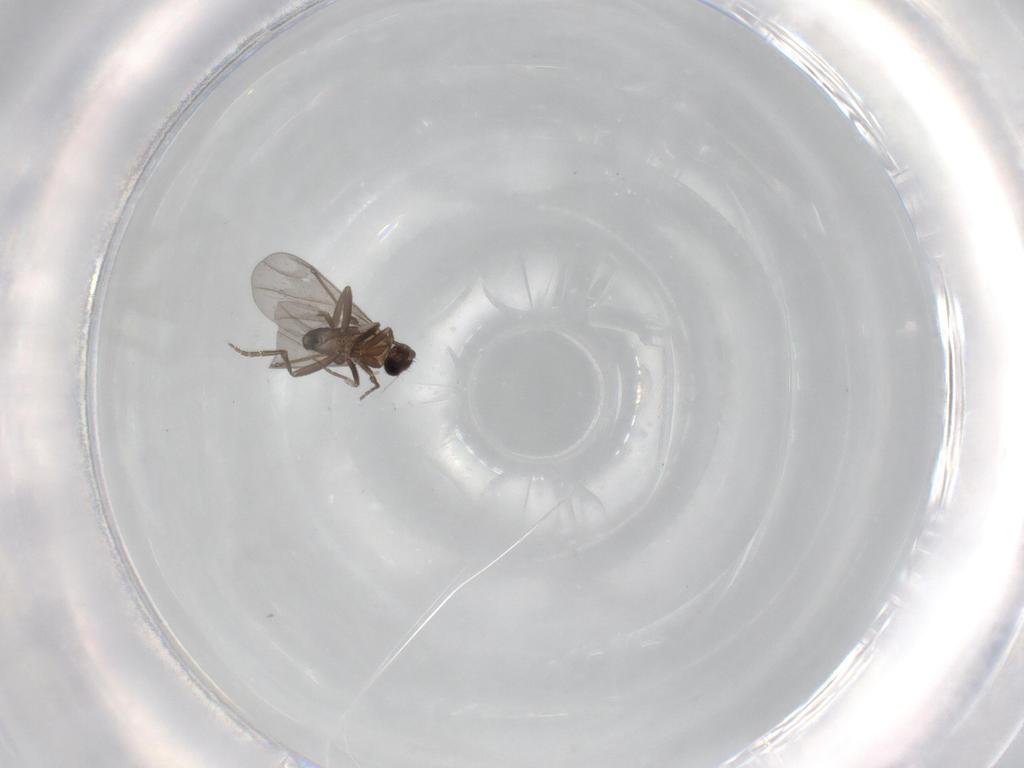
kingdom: Animalia
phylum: Arthropoda
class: Insecta
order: Diptera
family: Phoridae
